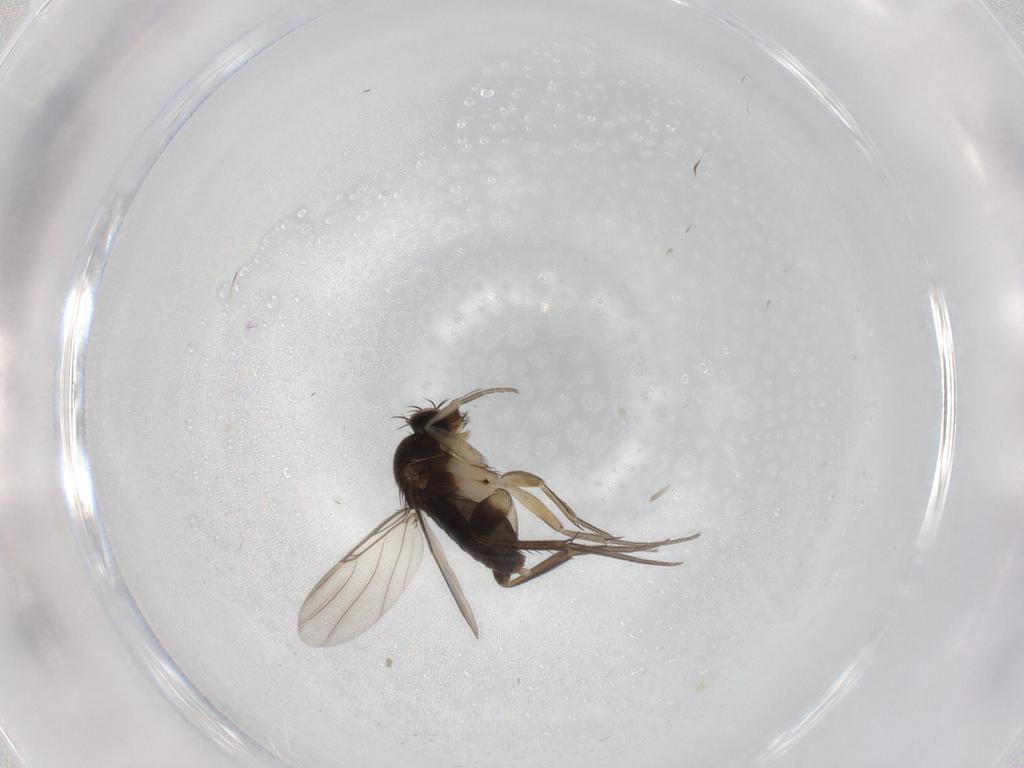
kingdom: Animalia
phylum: Arthropoda
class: Insecta
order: Diptera
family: Phoridae
